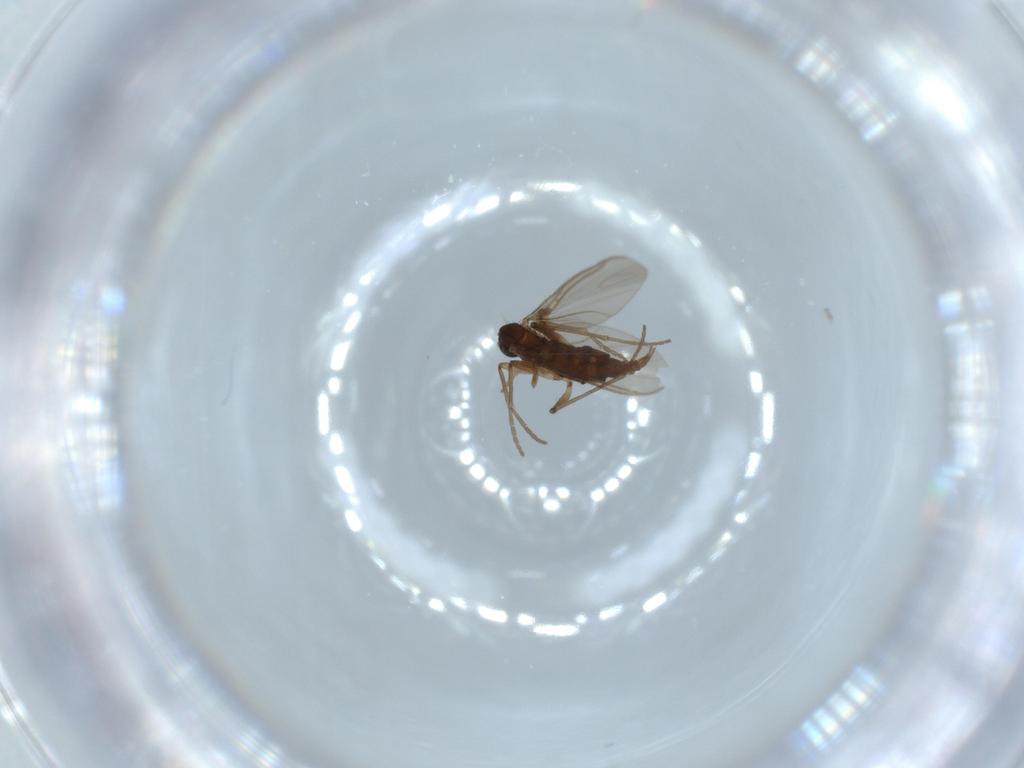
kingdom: Animalia
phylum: Arthropoda
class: Insecta
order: Diptera
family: Sciaridae
